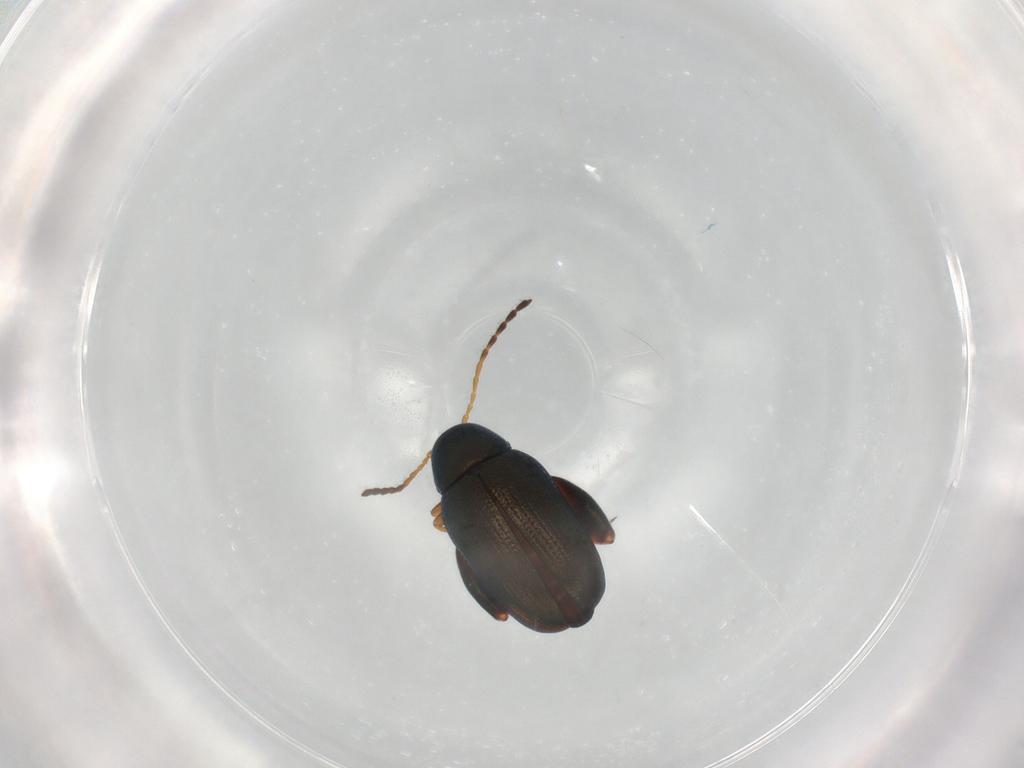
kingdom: Animalia
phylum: Arthropoda
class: Insecta
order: Coleoptera
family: Chrysomelidae
